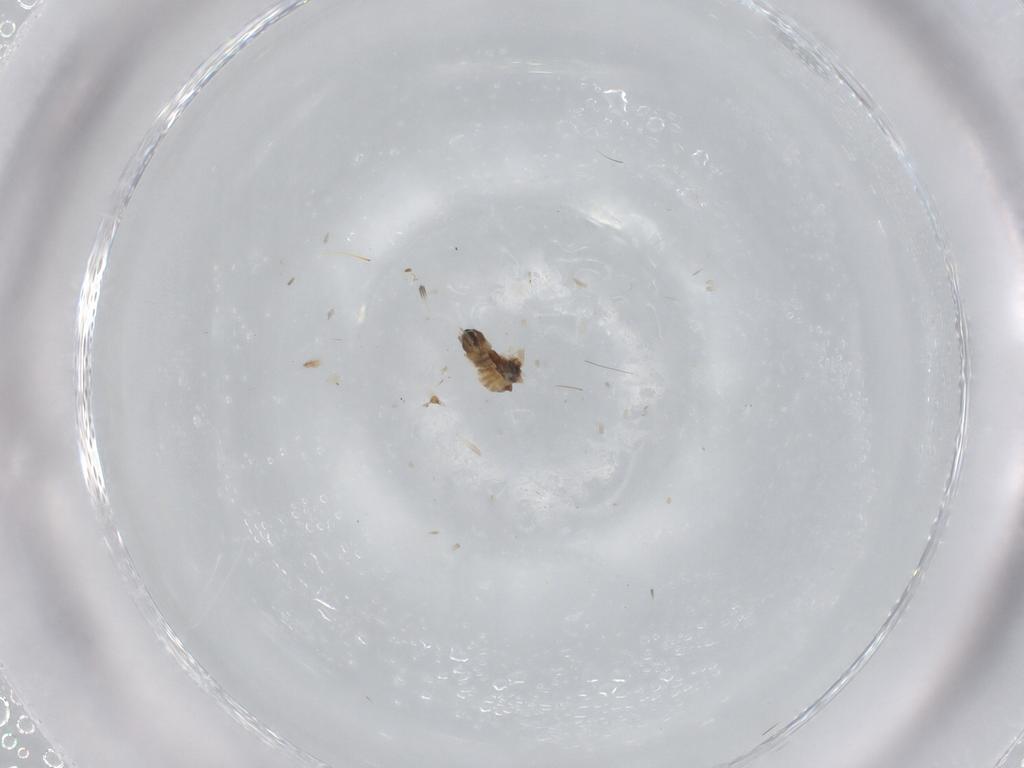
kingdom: Animalia
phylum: Arthropoda
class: Insecta
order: Diptera
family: Cecidomyiidae
